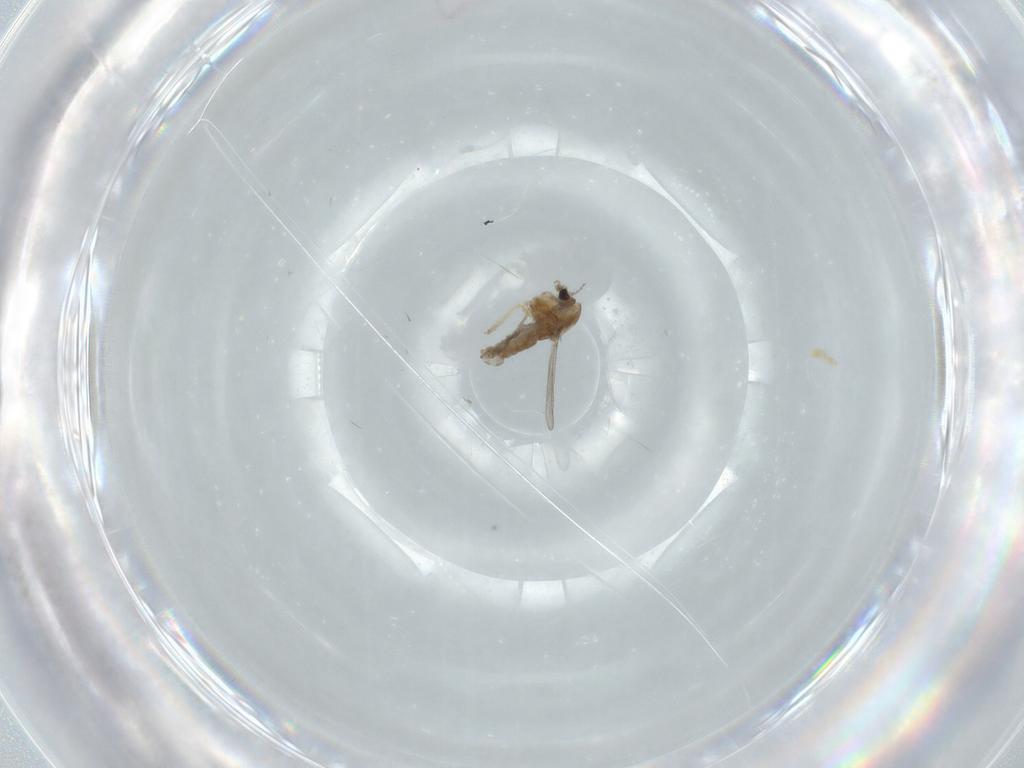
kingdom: Animalia
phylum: Arthropoda
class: Insecta
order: Diptera
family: Chironomidae
